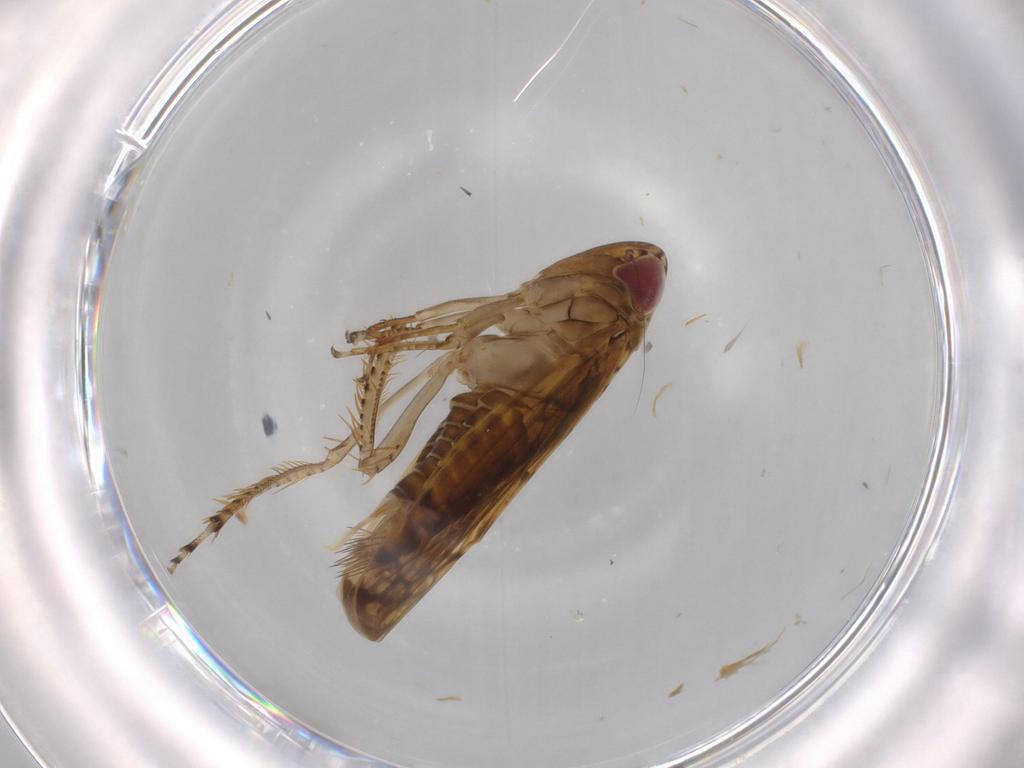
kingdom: Animalia
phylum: Arthropoda
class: Insecta
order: Hemiptera
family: Cicadellidae
